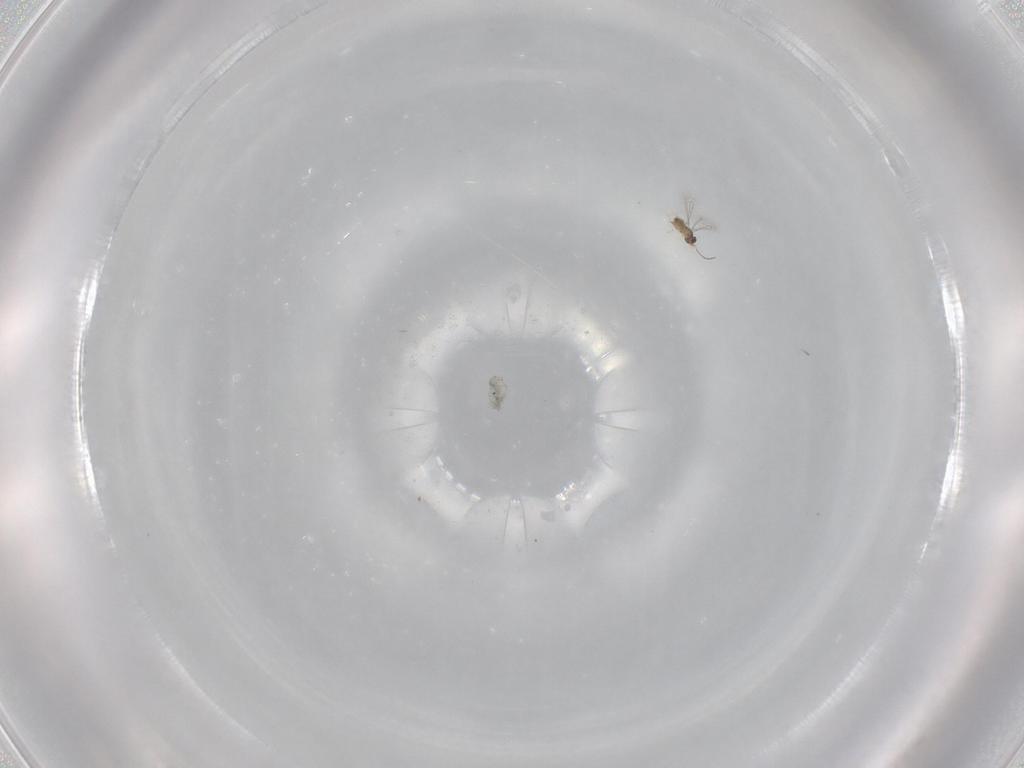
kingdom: Animalia
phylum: Arthropoda
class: Insecta
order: Hymenoptera
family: Mymaridae
